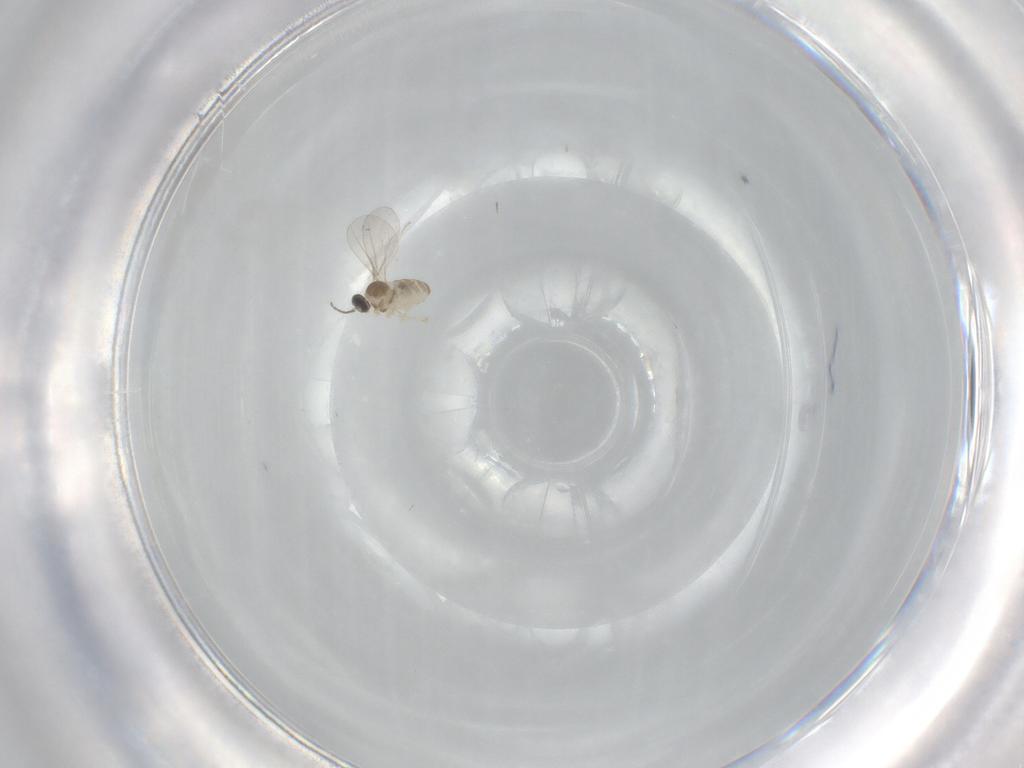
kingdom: Animalia
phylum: Arthropoda
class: Insecta
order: Diptera
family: Cecidomyiidae
